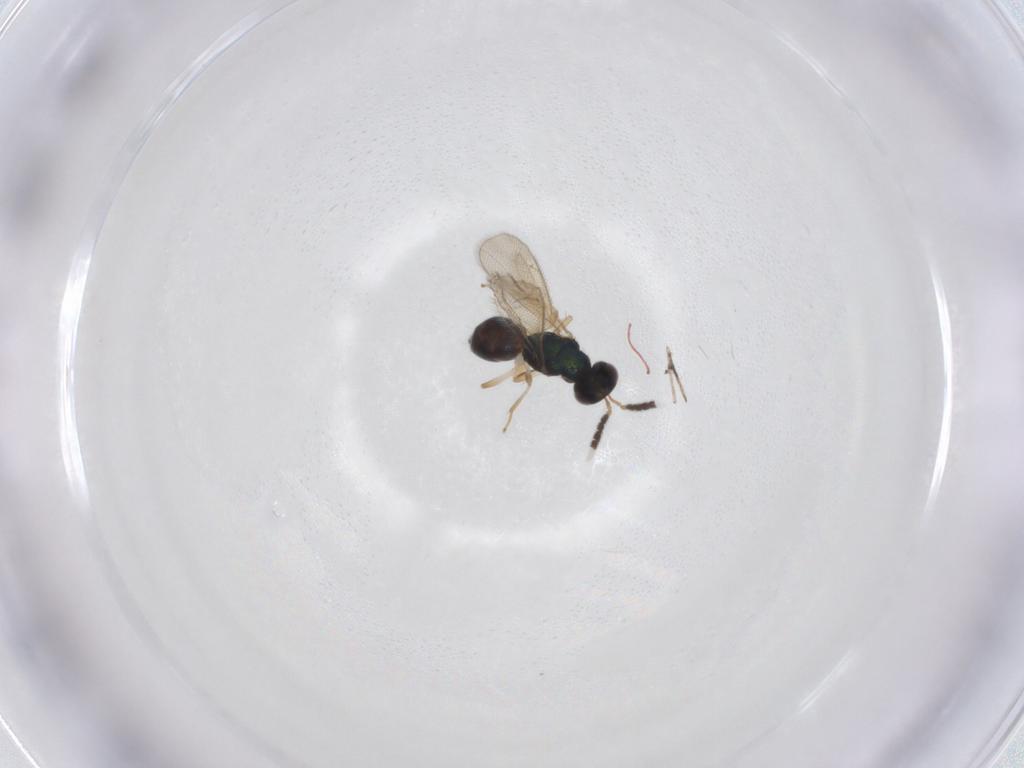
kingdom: Animalia
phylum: Arthropoda
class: Insecta
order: Hymenoptera
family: Eulophidae
